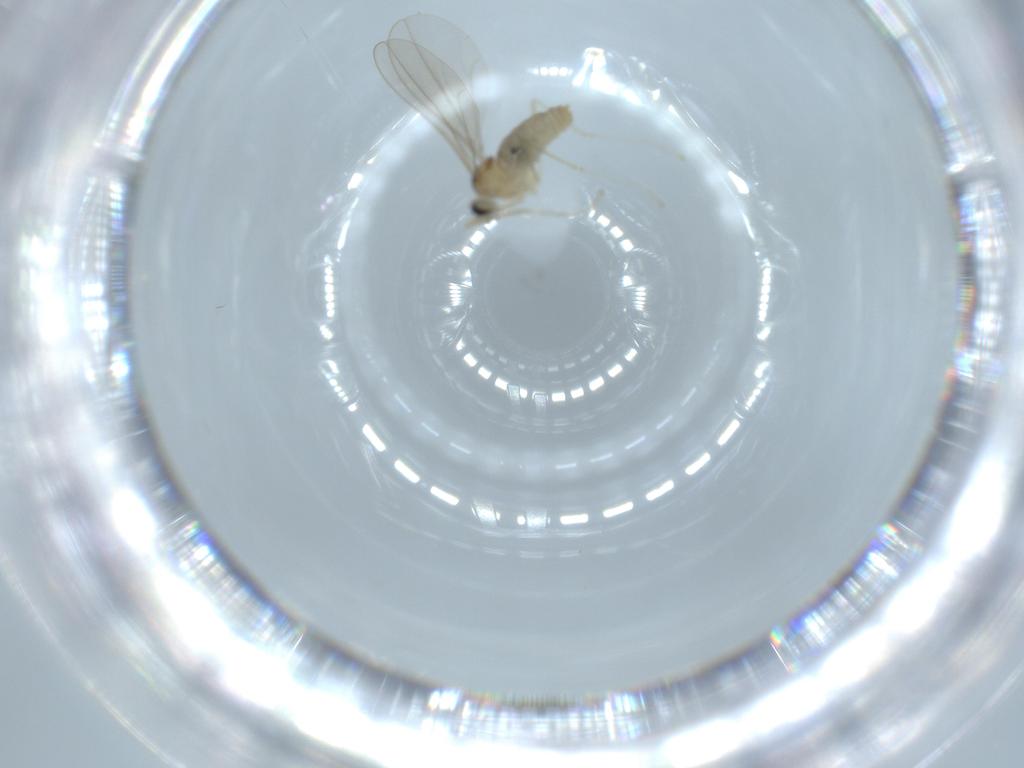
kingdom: Animalia
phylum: Arthropoda
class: Insecta
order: Diptera
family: Cecidomyiidae
